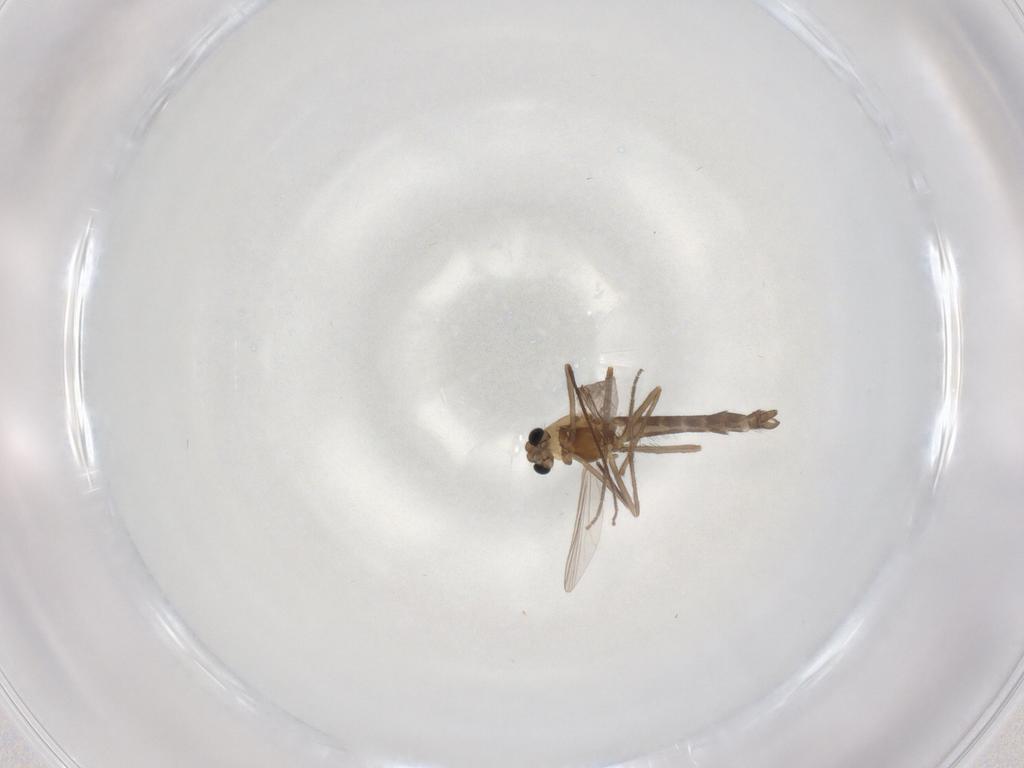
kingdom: Animalia
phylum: Arthropoda
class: Insecta
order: Diptera
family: Chironomidae
